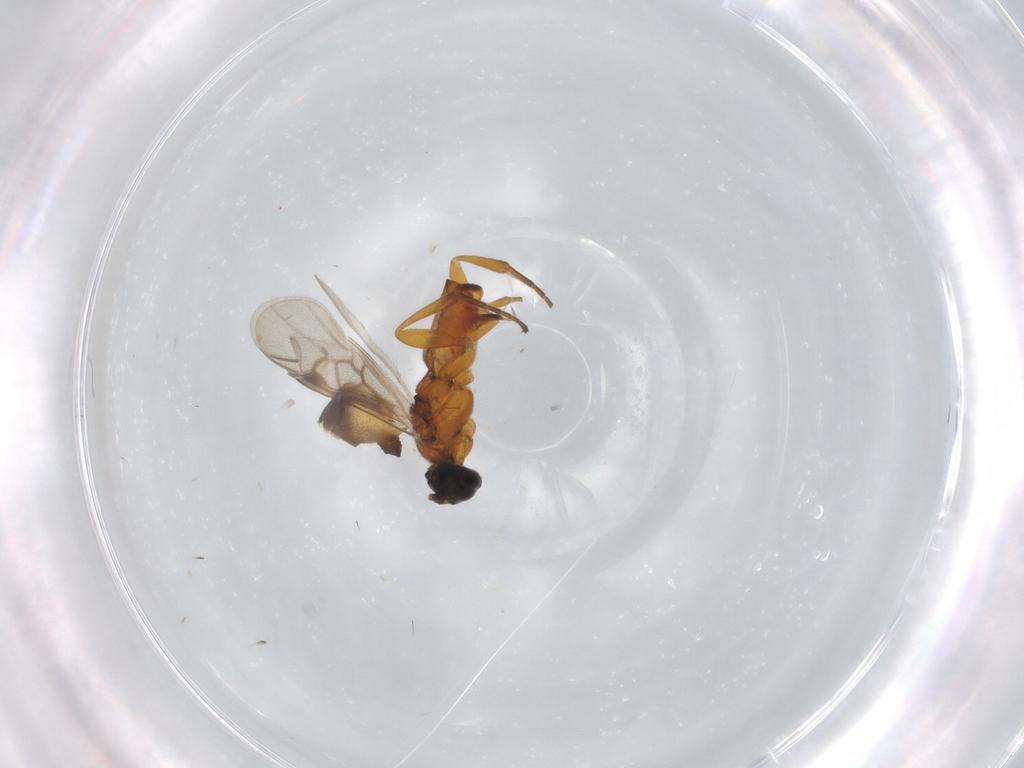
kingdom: Animalia
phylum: Arthropoda
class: Insecta
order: Hymenoptera
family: Braconidae
